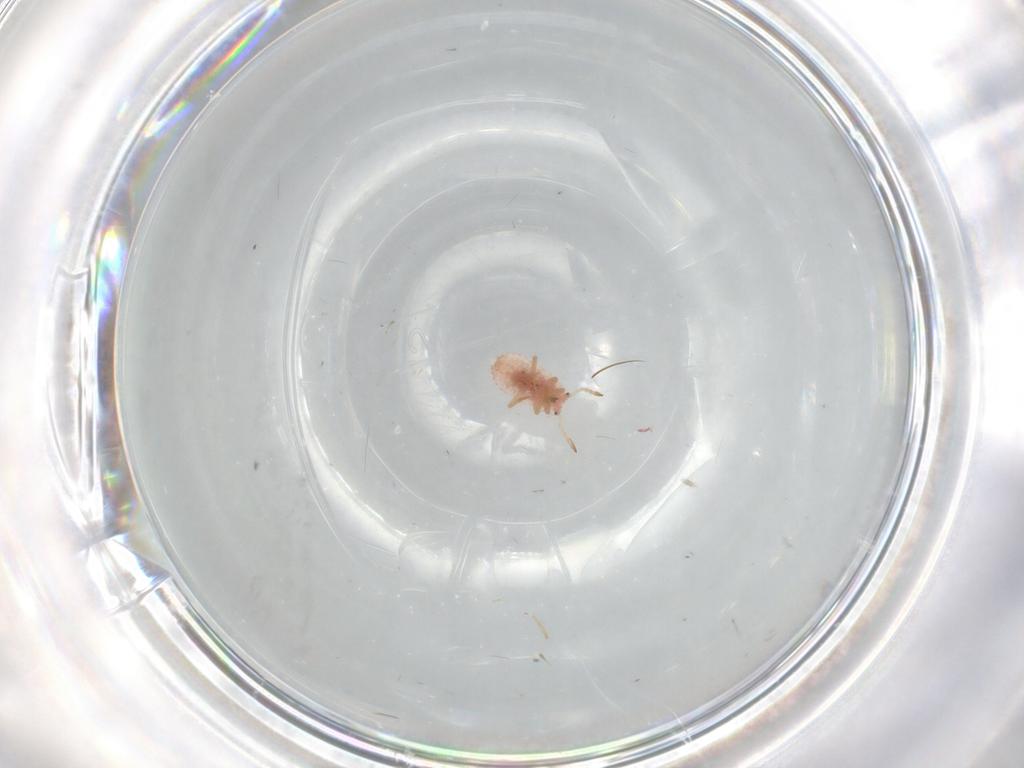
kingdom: Animalia
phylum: Arthropoda
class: Insecta
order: Hemiptera
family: Coccoidea_incertae_sedis
